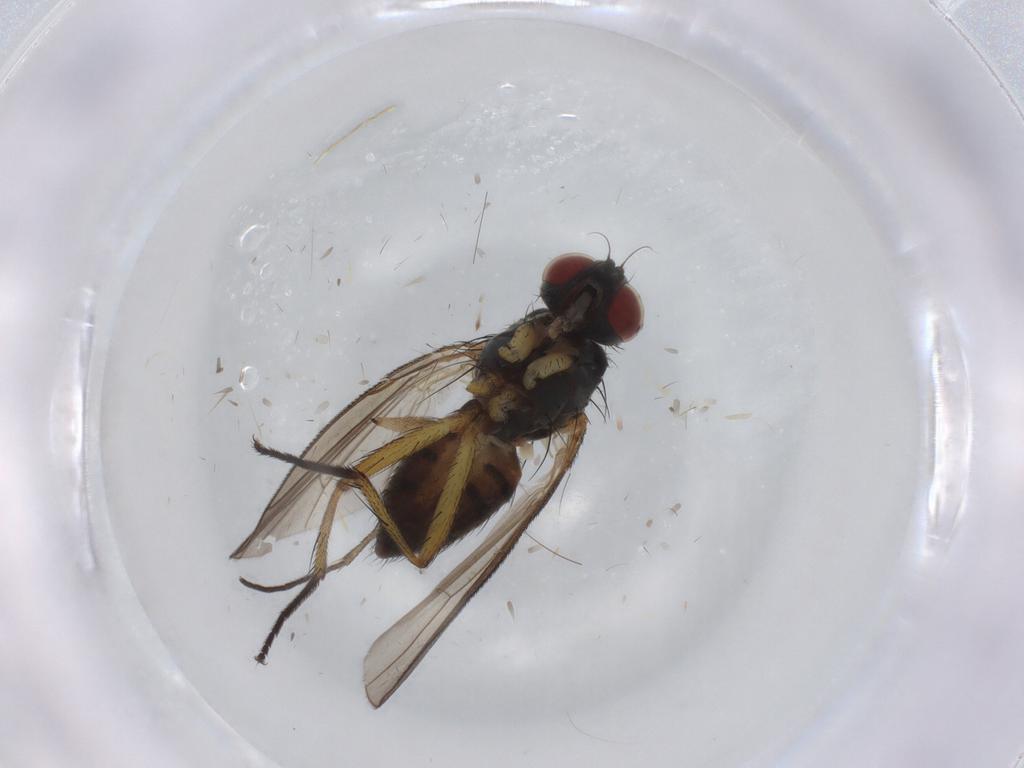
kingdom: Animalia
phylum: Arthropoda
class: Insecta
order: Diptera
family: Muscidae
